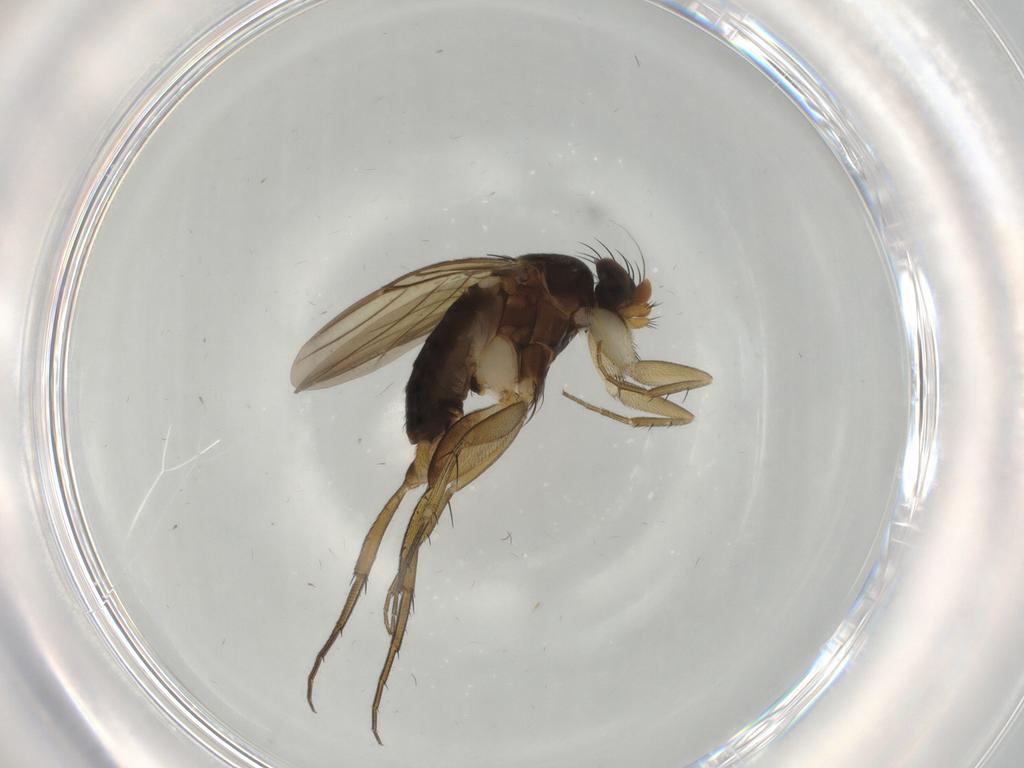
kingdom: Animalia
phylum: Arthropoda
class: Insecta
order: Diptera
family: Phoridae
